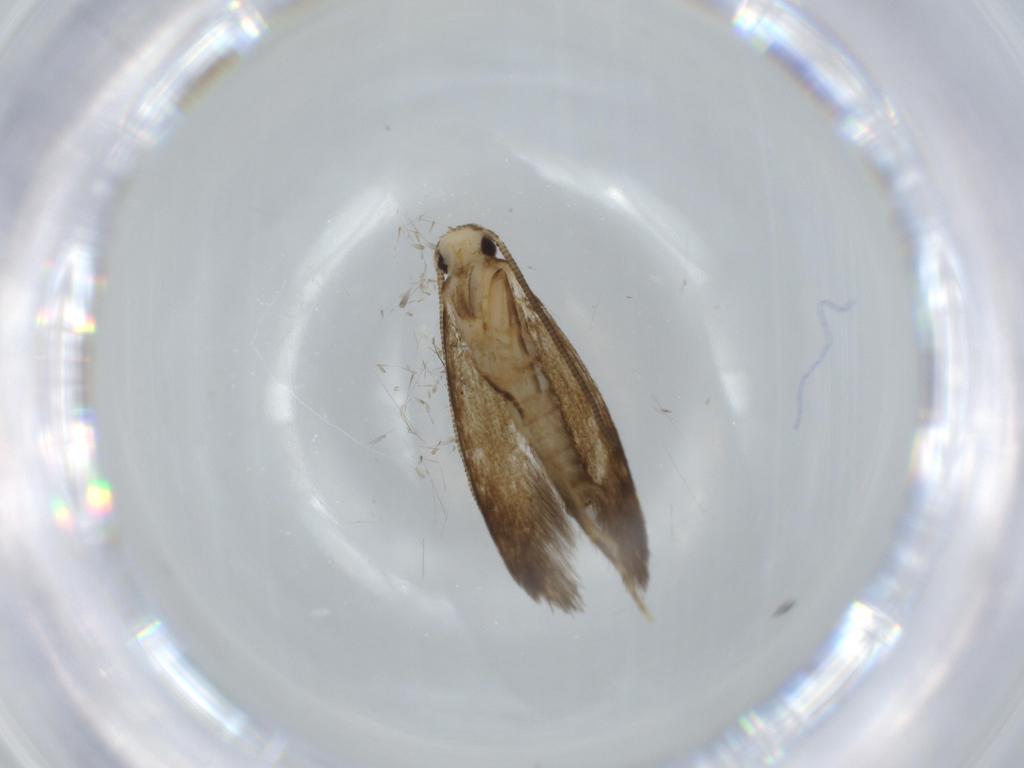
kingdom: Animalia
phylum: Arthropoda
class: Insecta
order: Lepidoptera
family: Tineidae
